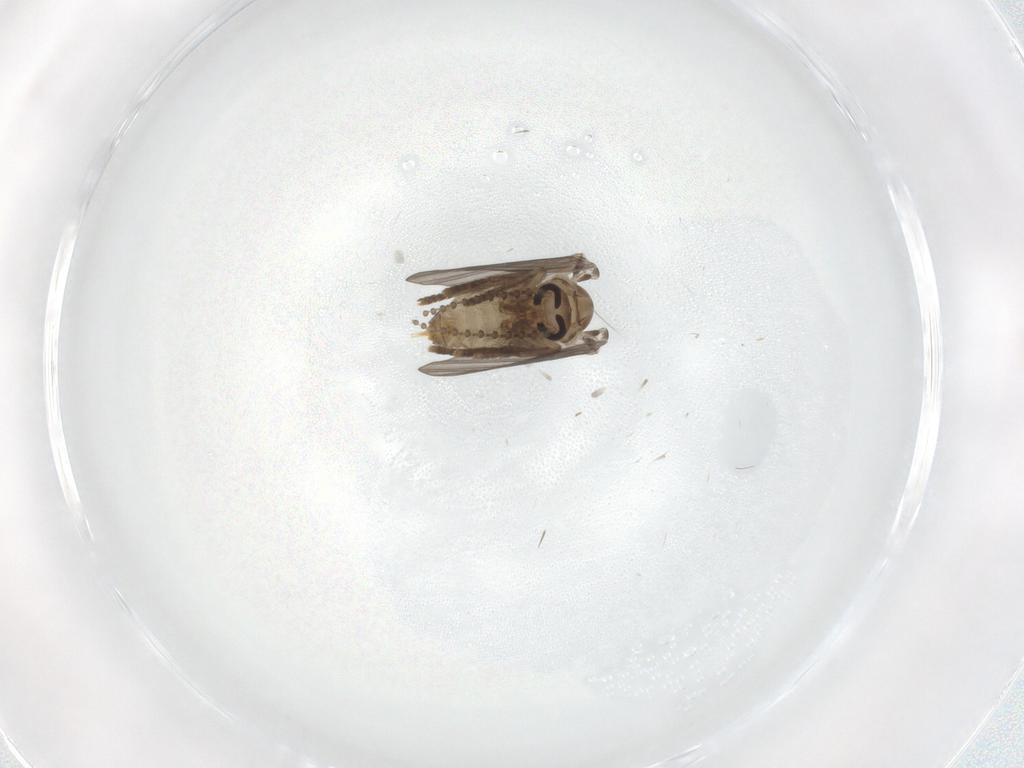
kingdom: Animalia
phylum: Arthropoda
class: Insecta
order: Diptera
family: Psychodidae
